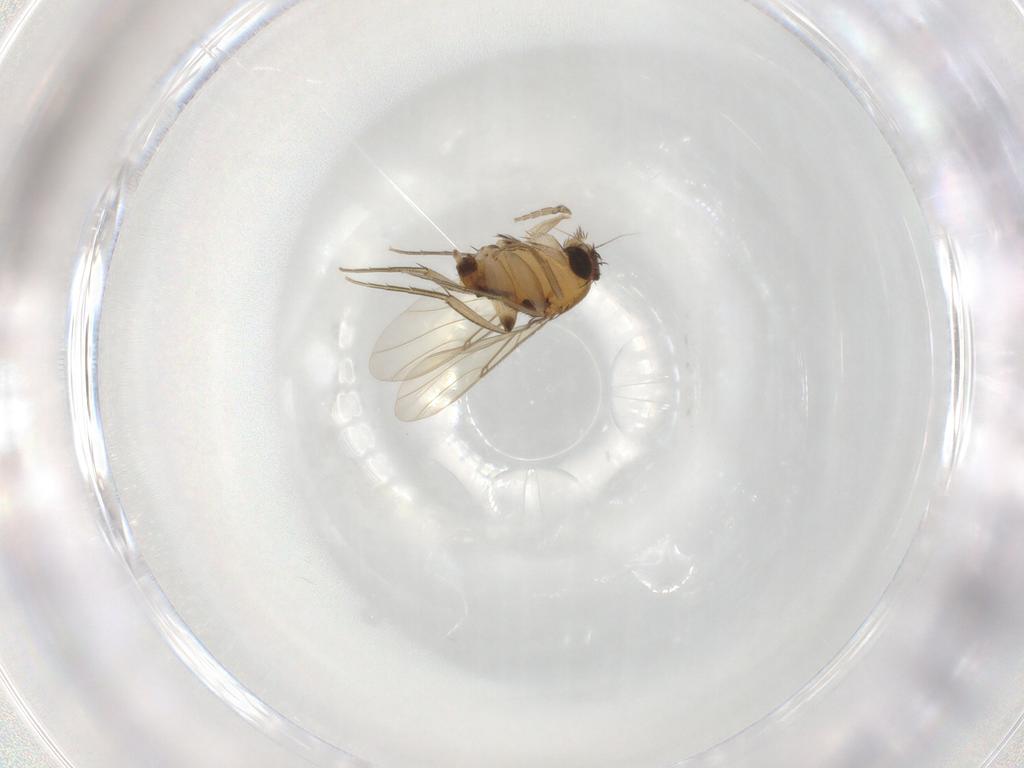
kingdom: Animalia
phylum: Arthropoda
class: Insecta
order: Diptera
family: Phoridae
